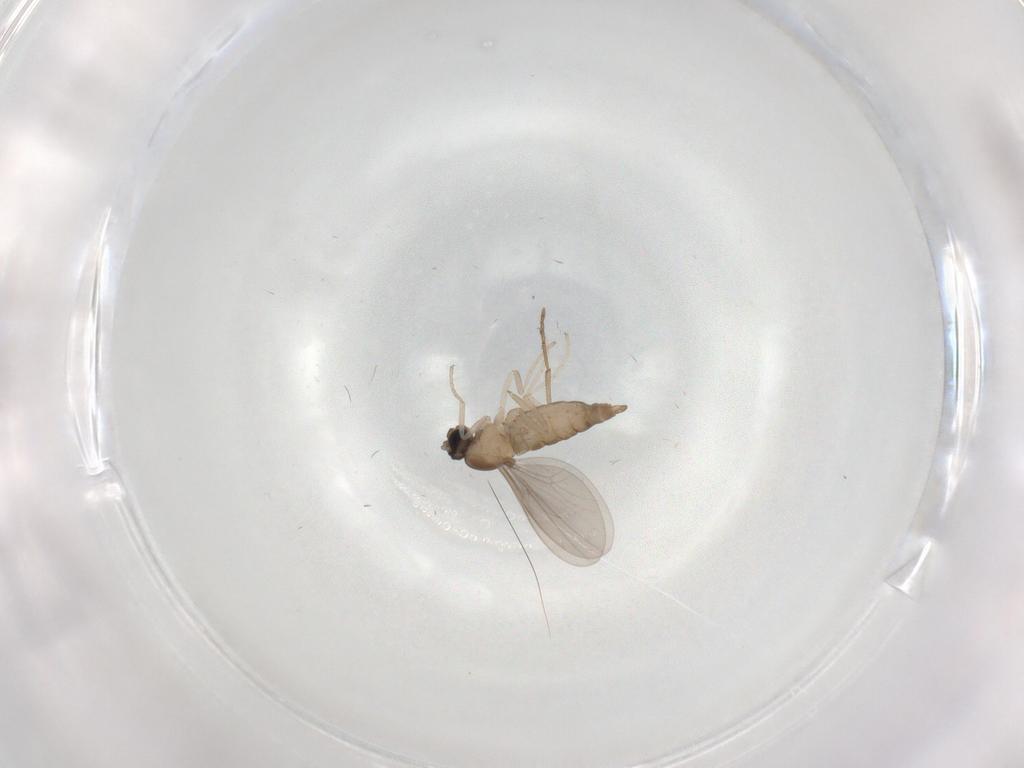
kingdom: Animalia
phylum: Arthropoda
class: Insecta
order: Diptera
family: Cecidomyiidae
